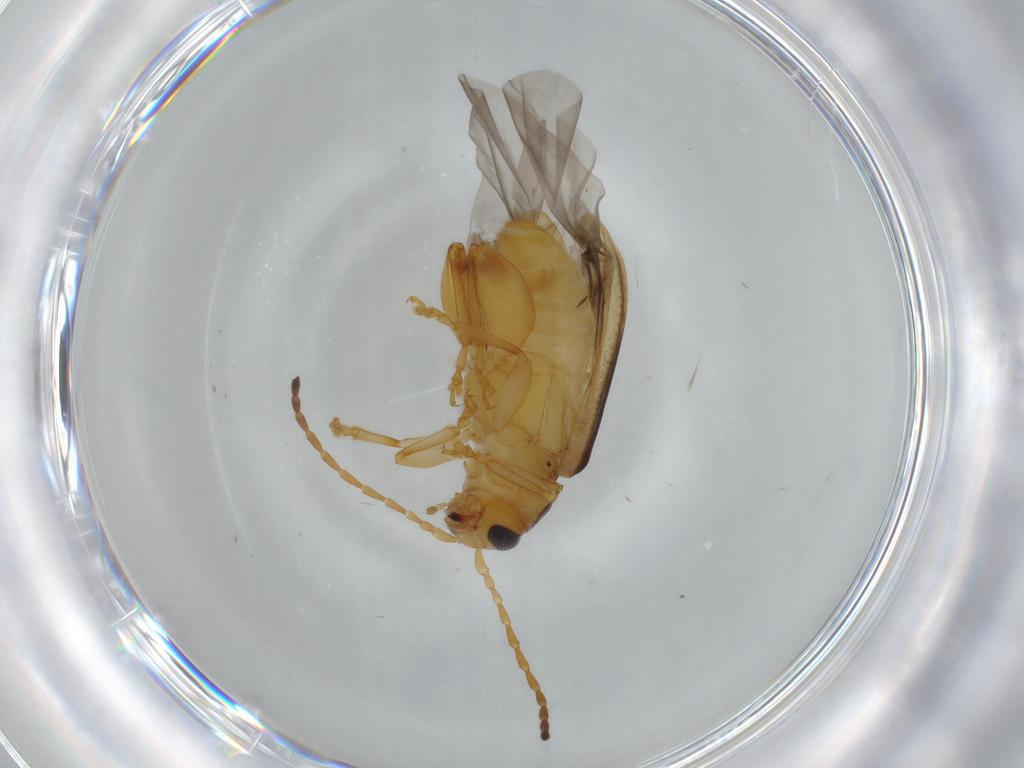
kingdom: Animalia
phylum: Arthropoda
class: Insecta
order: Coleoptera
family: Chrysomelidae
